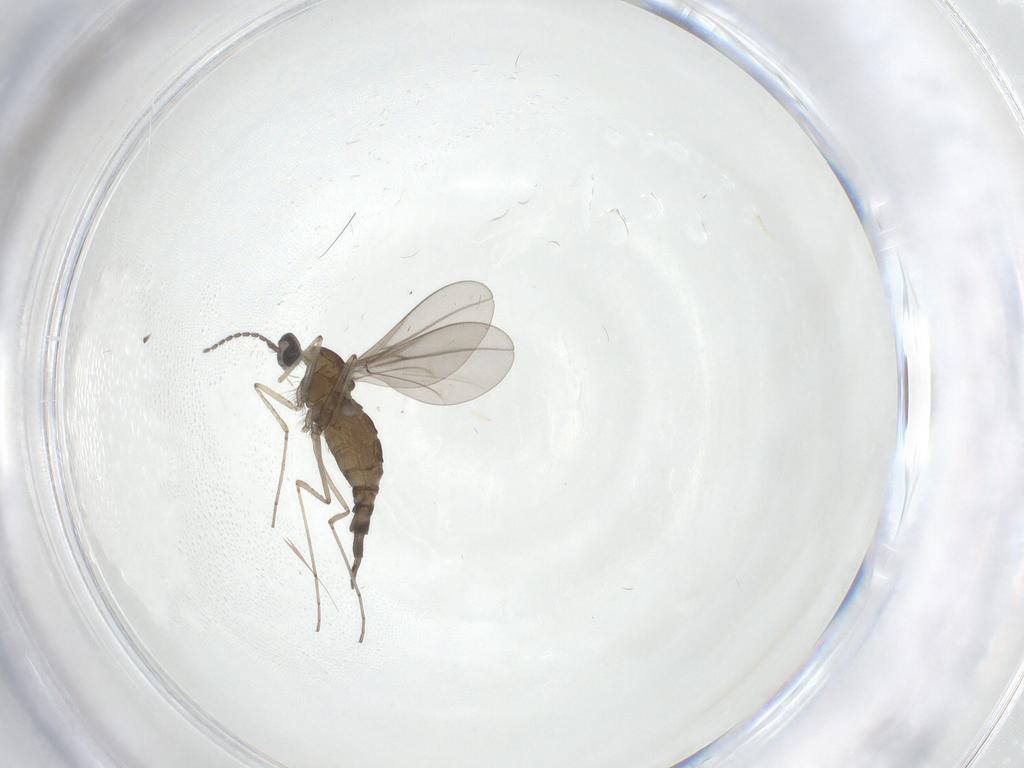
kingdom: Animalia
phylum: Arthropoda
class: Insecta
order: Diptera
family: Cecidomyiidae
